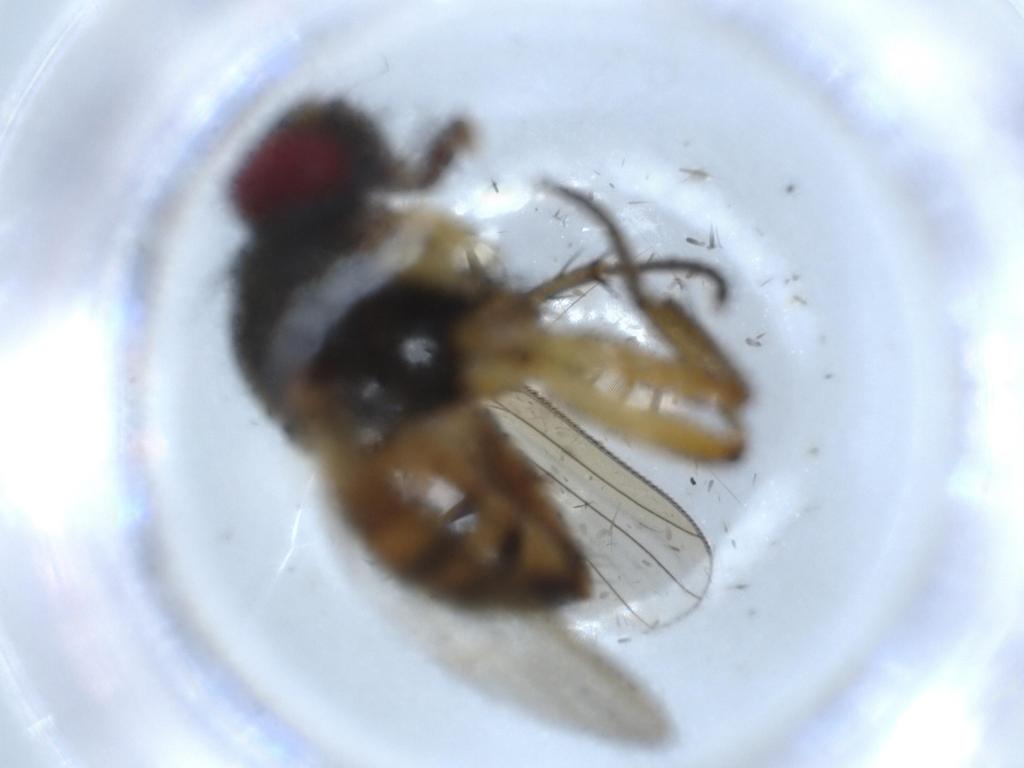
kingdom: Animalia
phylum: Arthropoda
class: Insecta
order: Diptera
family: Muscidae
